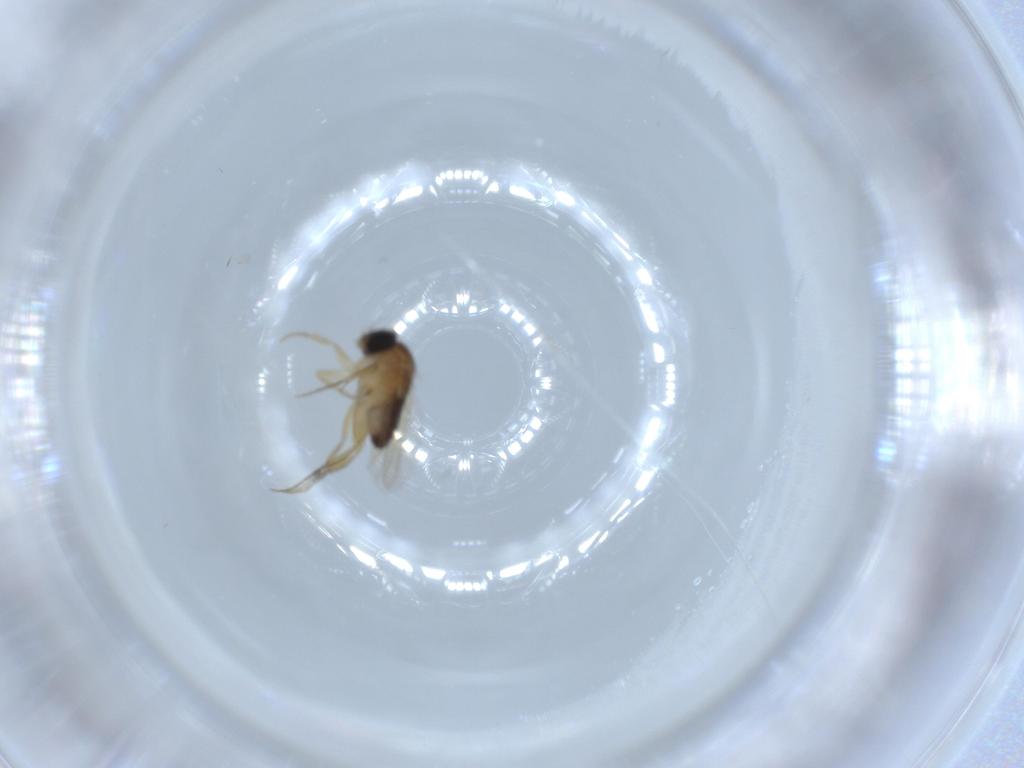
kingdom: Animalia
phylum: Arthropoda
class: Insecta
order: Diptera
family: Phoridae
